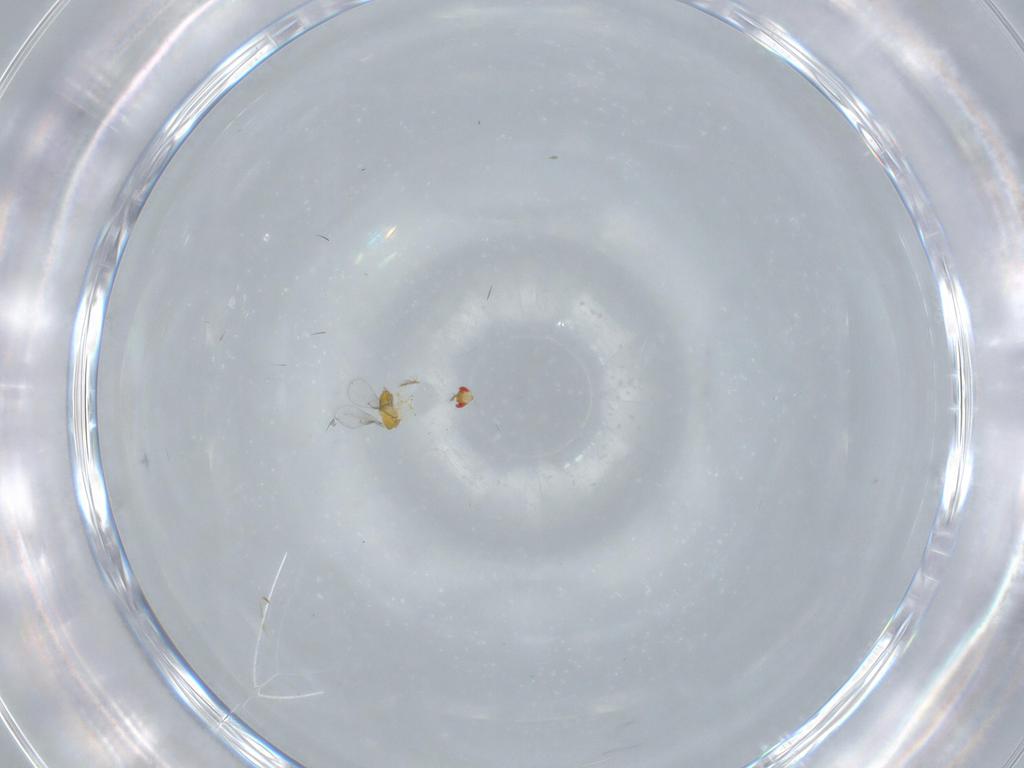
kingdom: Animalia
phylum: Arthropoda
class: Insecta
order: Hymenoptera
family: Trichogrammatidae
